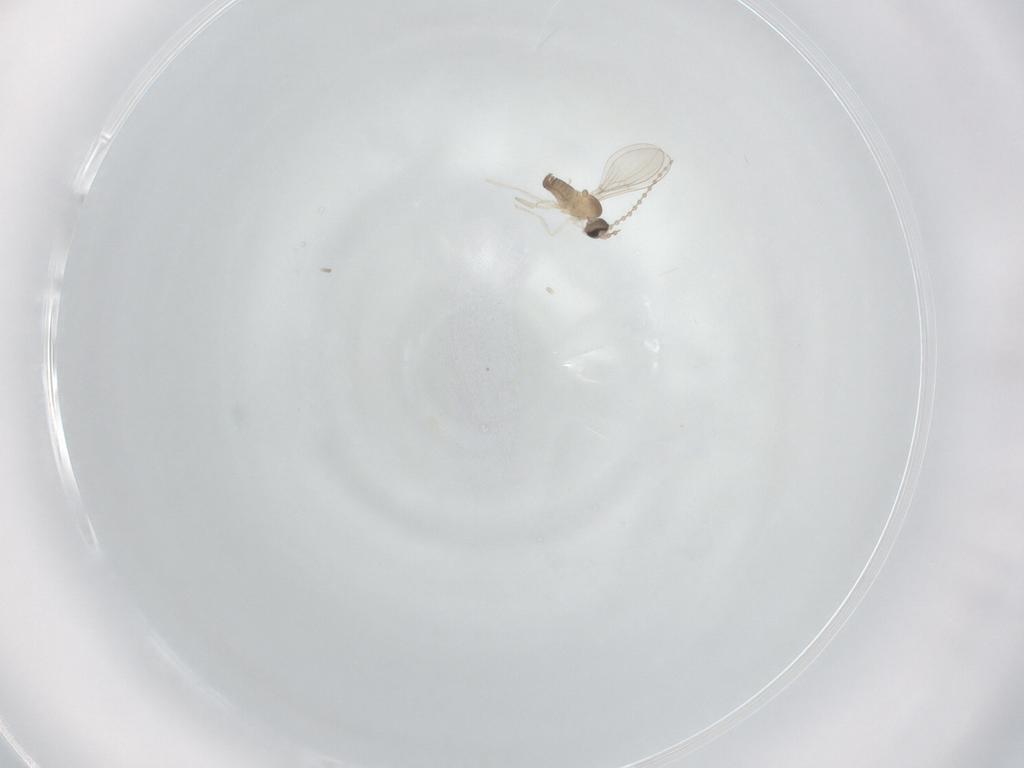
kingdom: Animalia
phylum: Arthropoda
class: Insecta
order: Diptera
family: Cecidomyiidae
